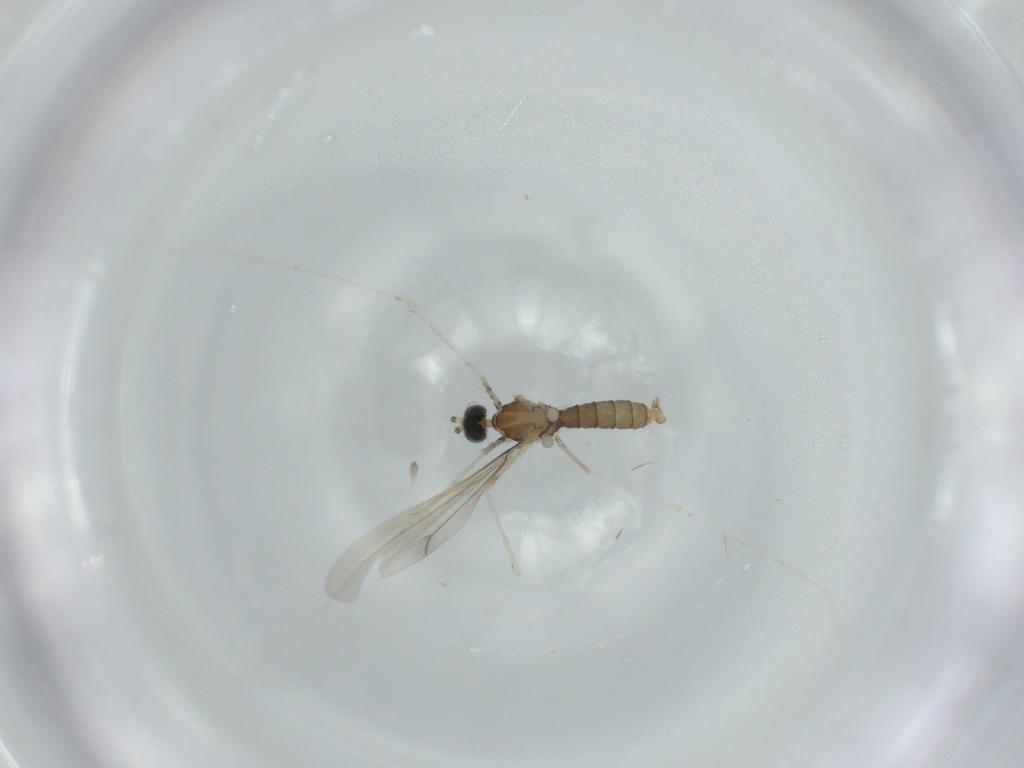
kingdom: Animalia
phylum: Arthropoda
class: Insecta
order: Diptera
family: Cecidomyiidae
